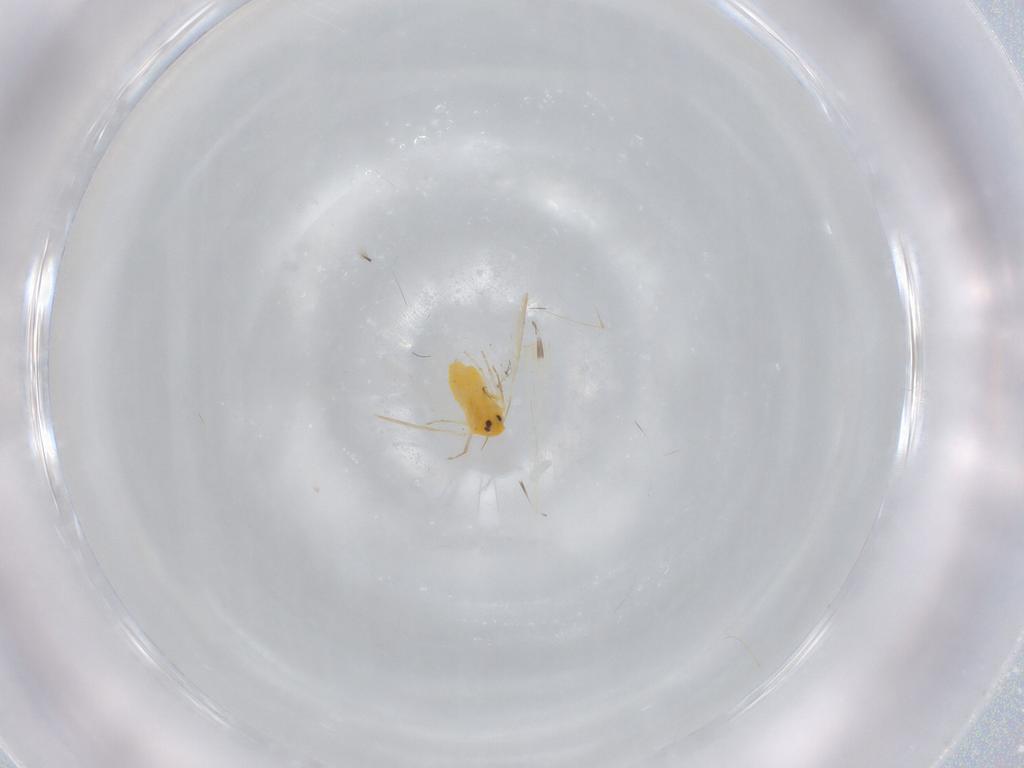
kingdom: Animalia
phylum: Arthropoda
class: Insecta
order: Hemiptera
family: Aleyrodidae
